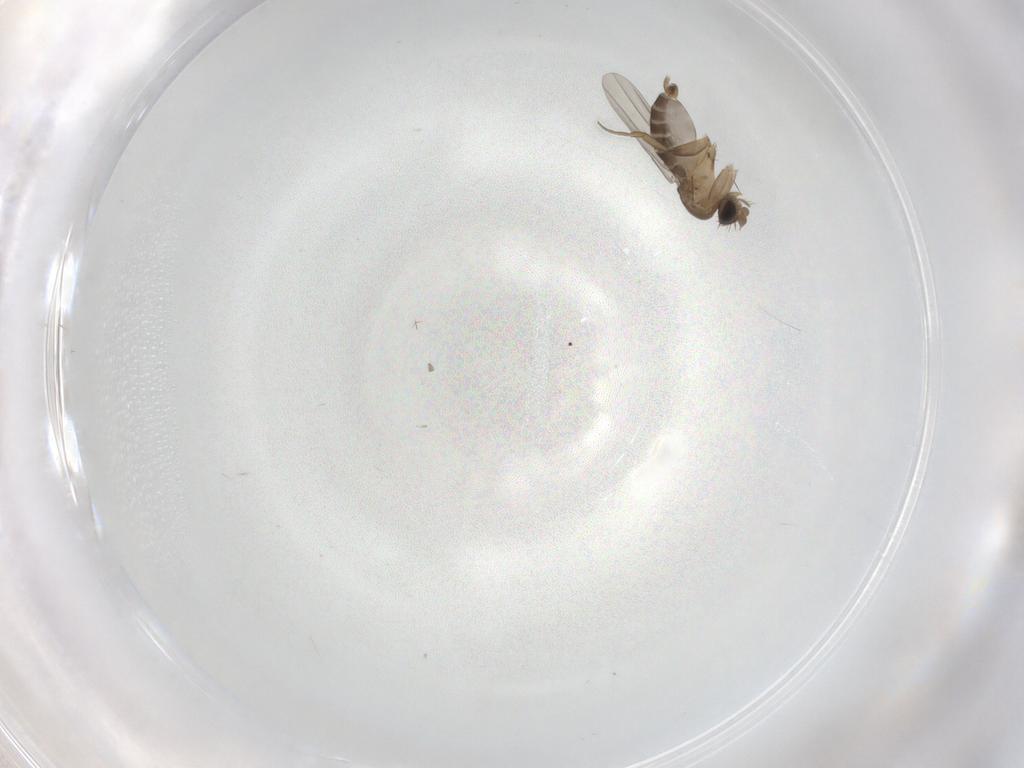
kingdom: Animalia
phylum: Arthropoda
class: Insecta
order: Diptera
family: Phoridae
